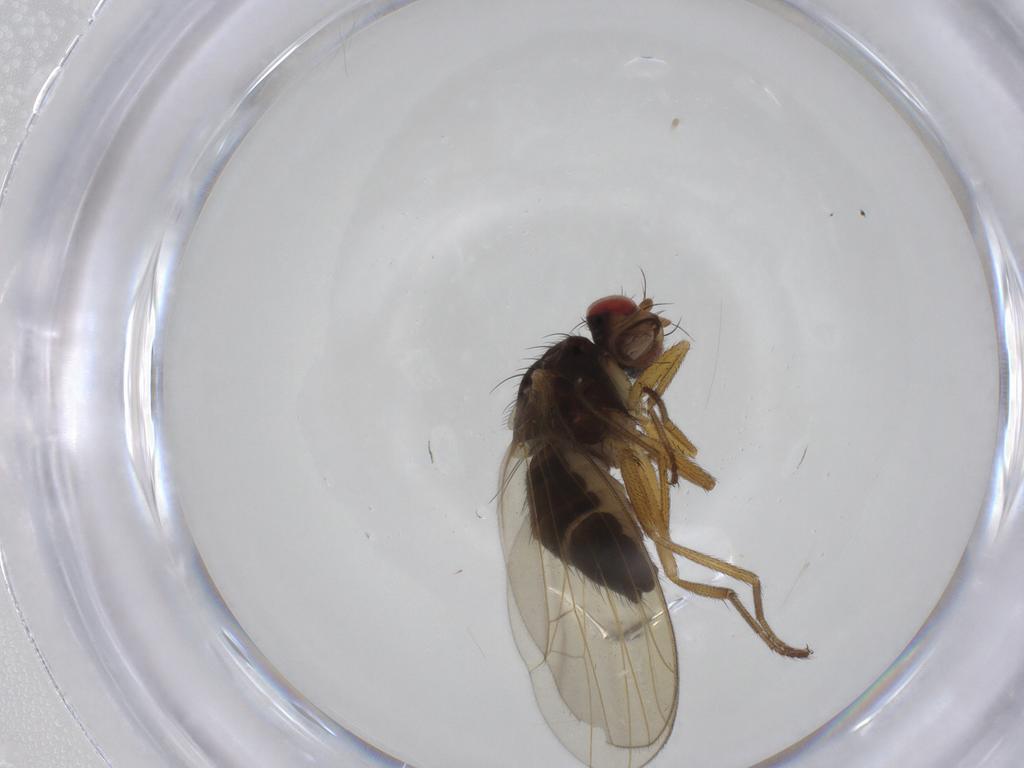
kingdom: Animalia
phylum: Arthropoda
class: Insecta
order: Diptera
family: Drosophilidae
